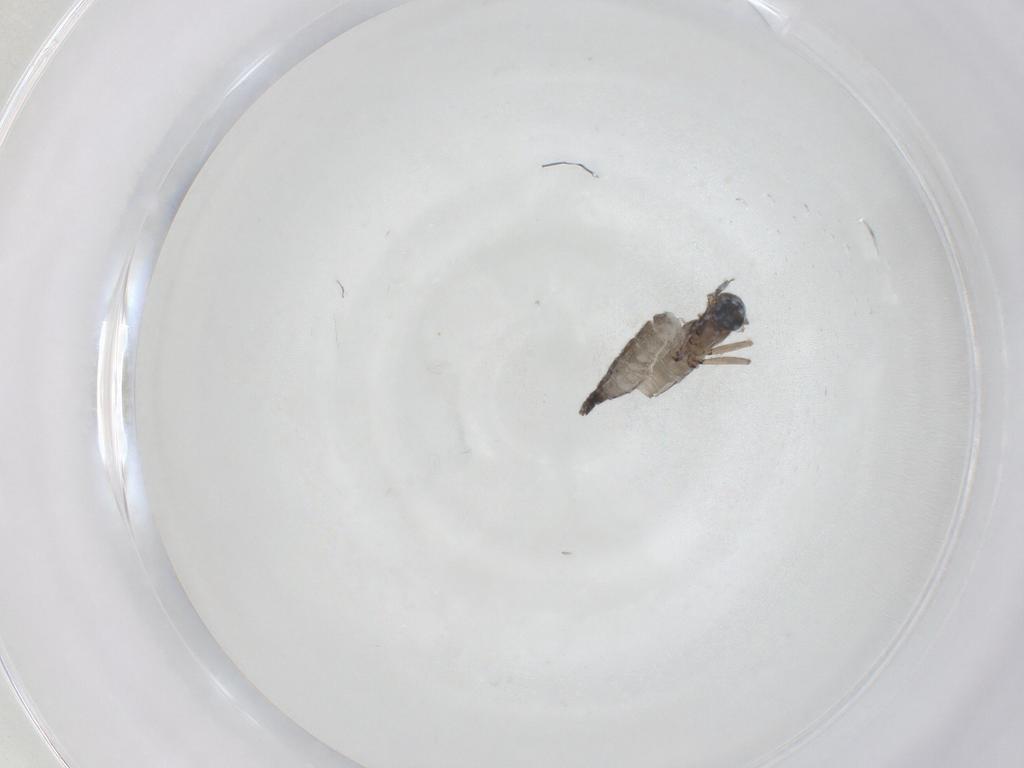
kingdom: Animalia
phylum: Arthropoda
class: Insecta
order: Diptera
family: Sciaridae
